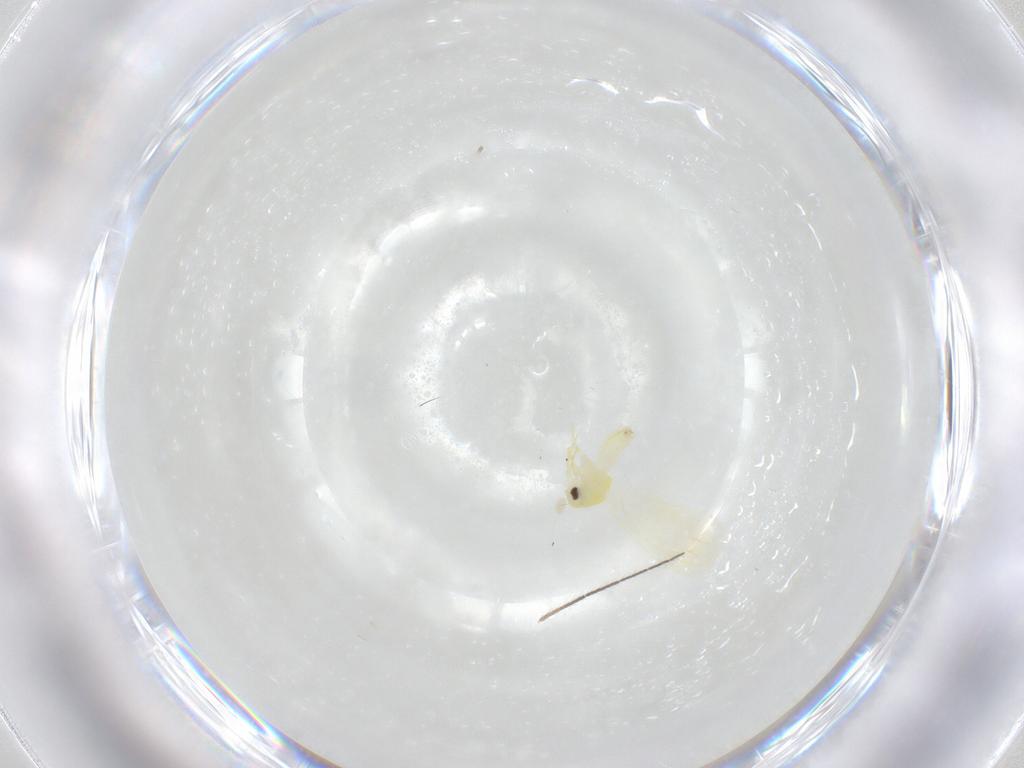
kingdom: Animalia
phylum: Arthropoda
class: Insecta
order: Hemiptera
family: Aleyrodidae
